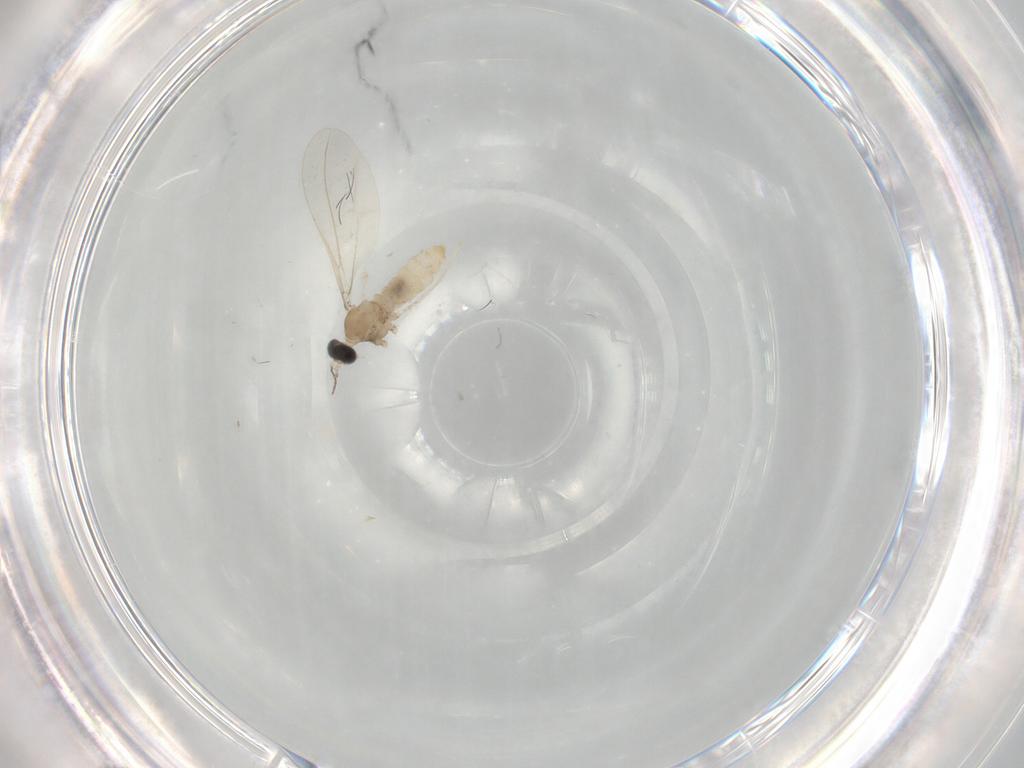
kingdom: Animalia
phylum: Arthropoda
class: Insecta
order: Diptera
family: Cecidomyiidae
